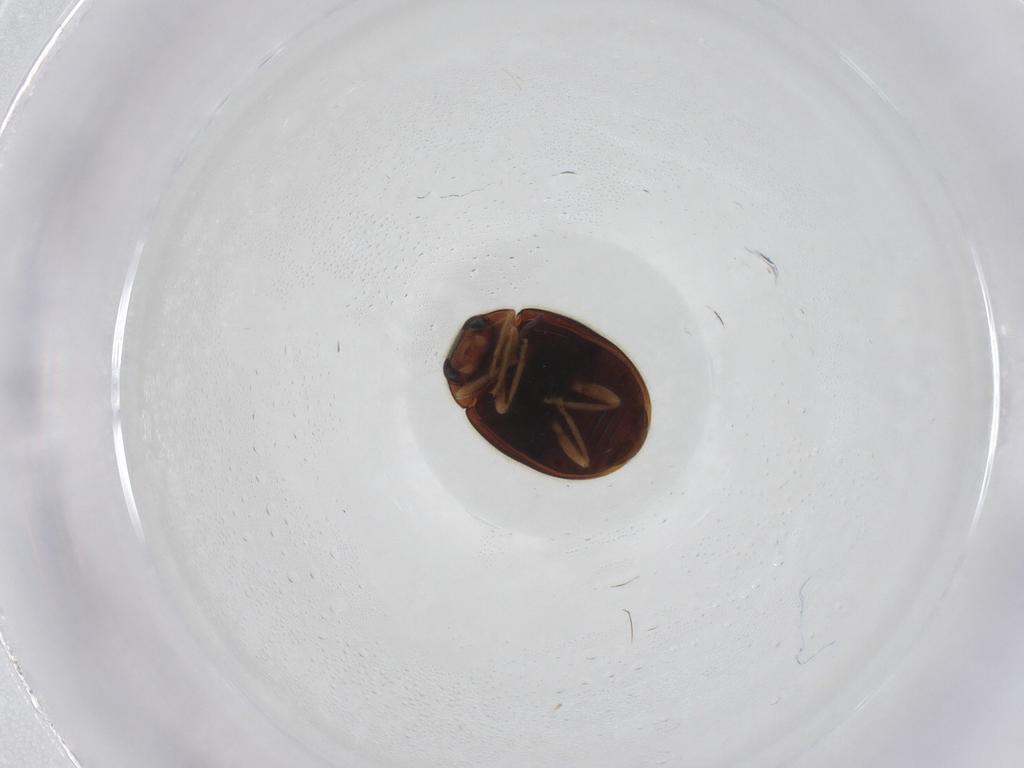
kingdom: Animalia
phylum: Arthropoda
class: Insecta
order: Coleoptera
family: Coccinellidae
